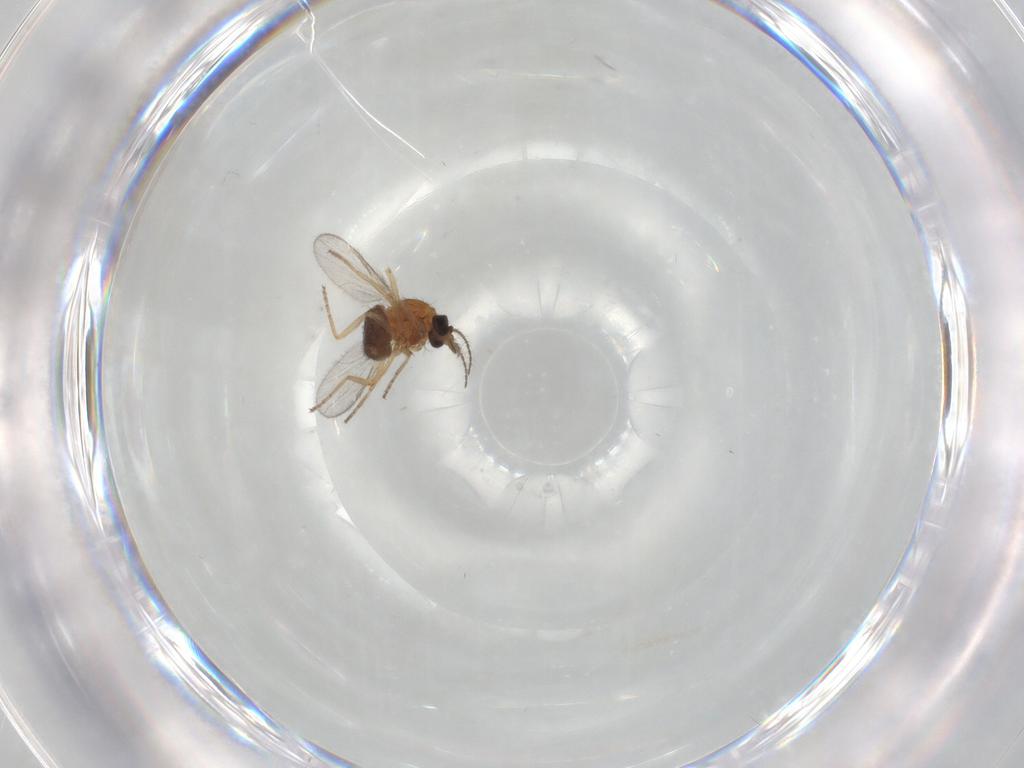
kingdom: Animalia
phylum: Arthropoda
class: Insecta
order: Diptera
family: Ceratopogonidae
